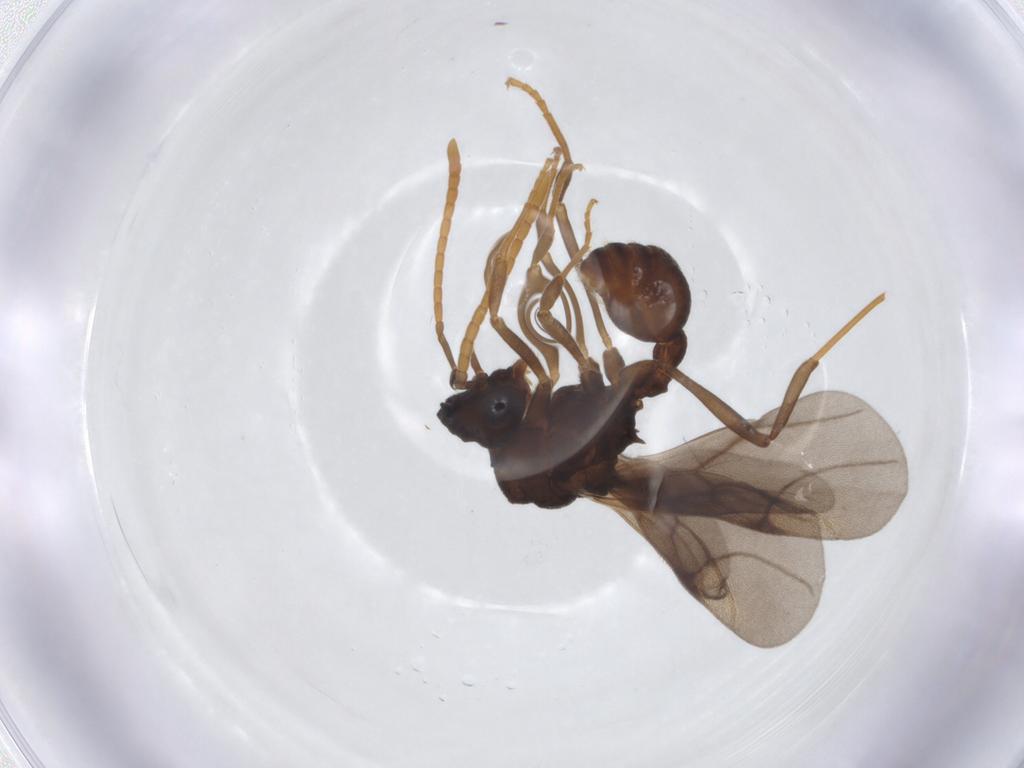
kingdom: Animalia
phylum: Arthropoda
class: Insecta
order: Hymenoptera
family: Formicidae
